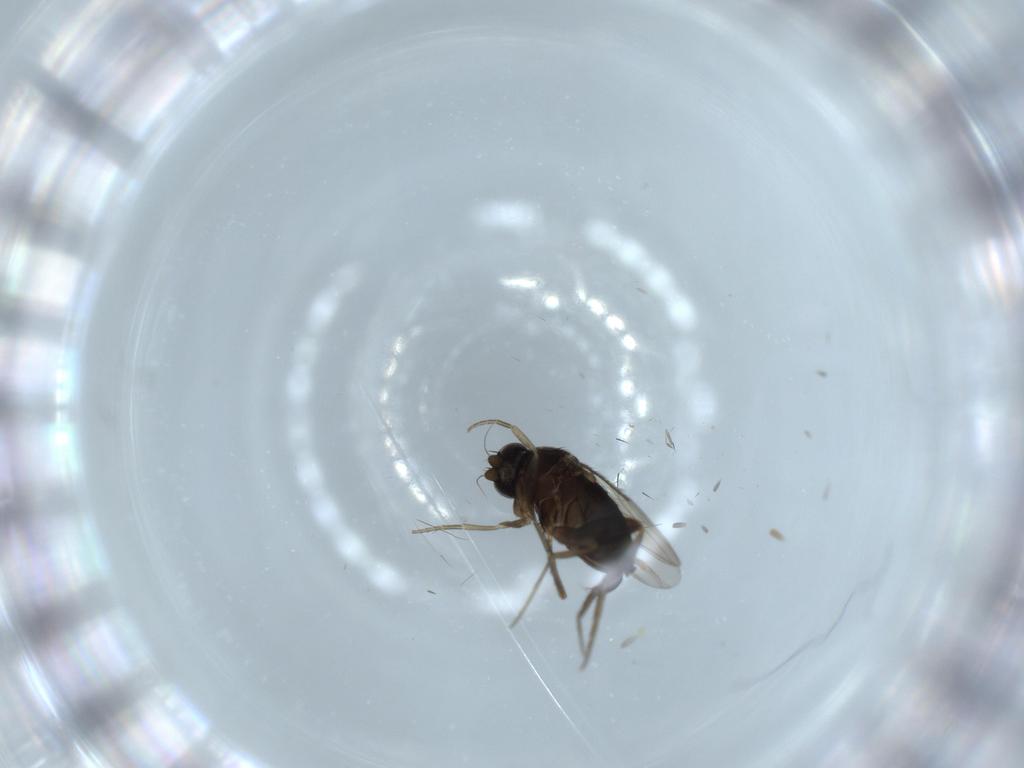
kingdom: Animalia
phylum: Arthropoda
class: Insecta
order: Diptera
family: Phoridae
